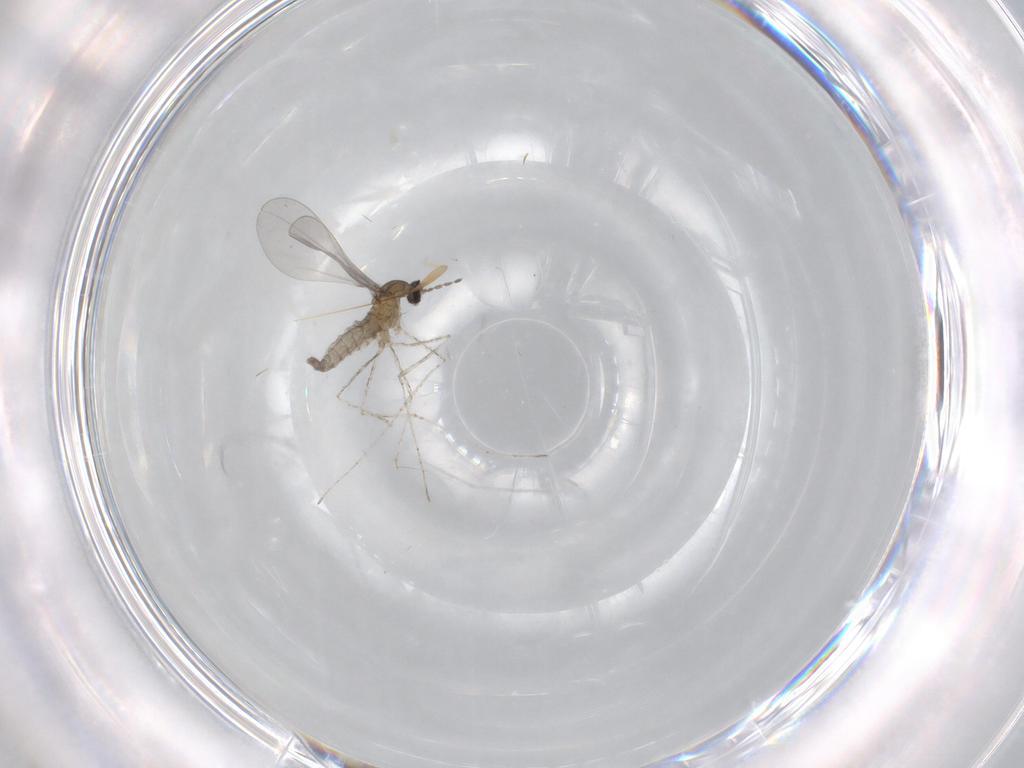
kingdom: Animalia
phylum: Arthropoda
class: Insecta
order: Diptera
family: Cecidomyiidae
